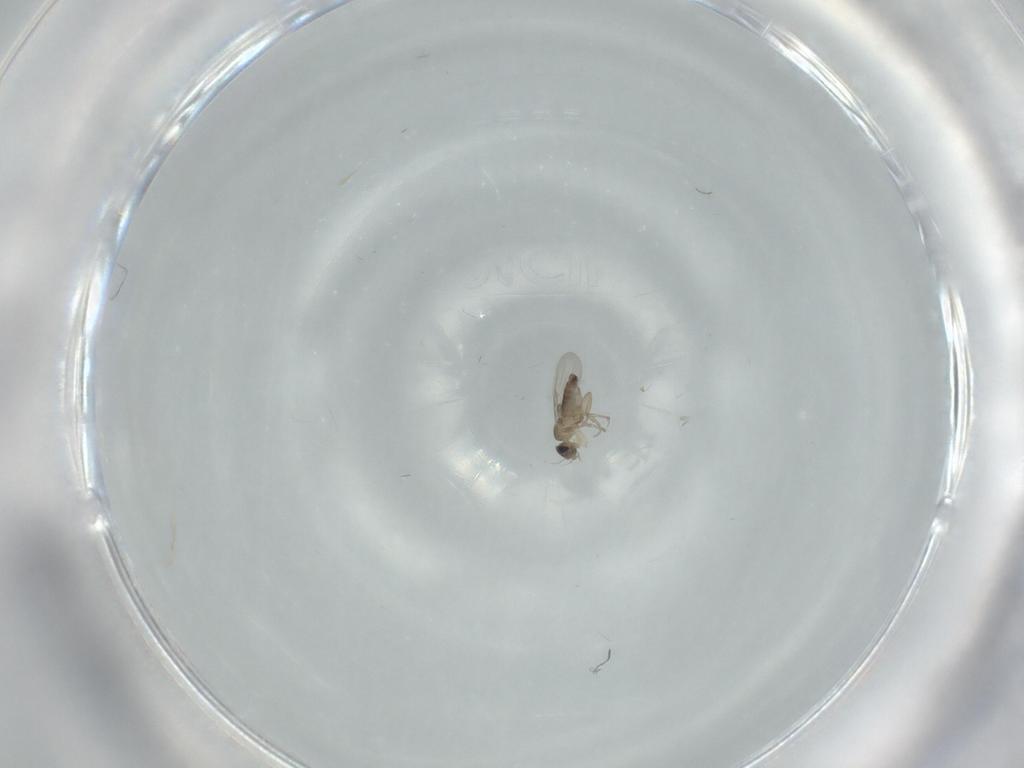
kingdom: Animalia
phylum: Arthropoda
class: Insecta
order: Diptera
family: Phoridae
